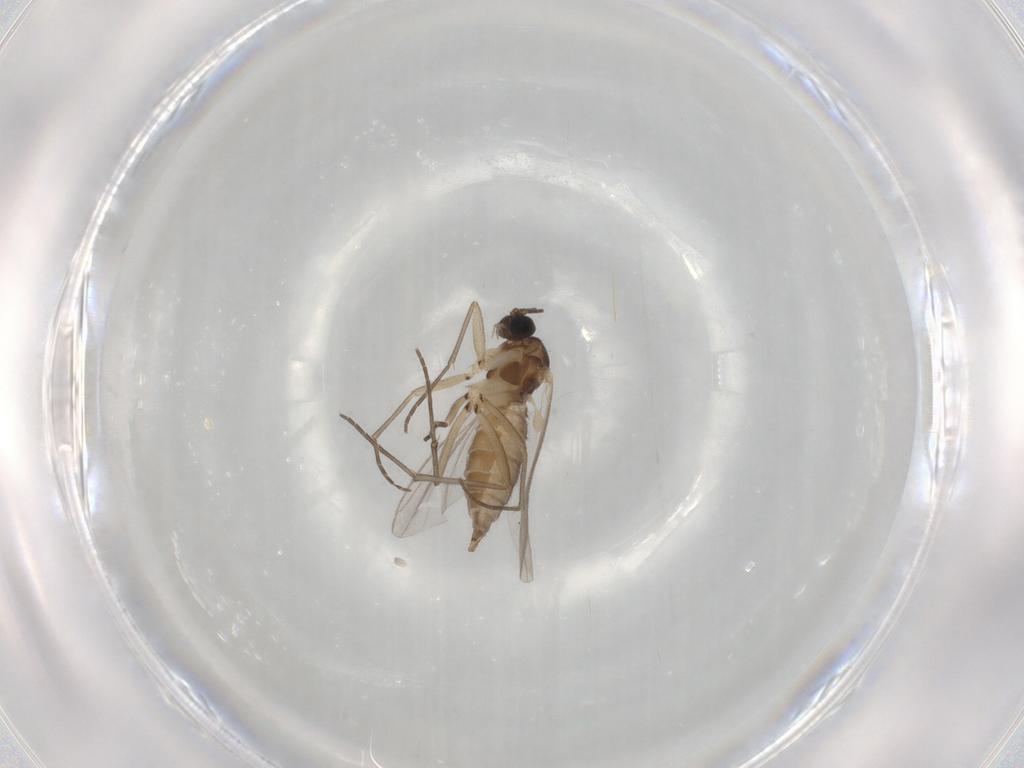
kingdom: Animalia
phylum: Arthropoda
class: Insecta
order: Diptera
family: Sciaridae
